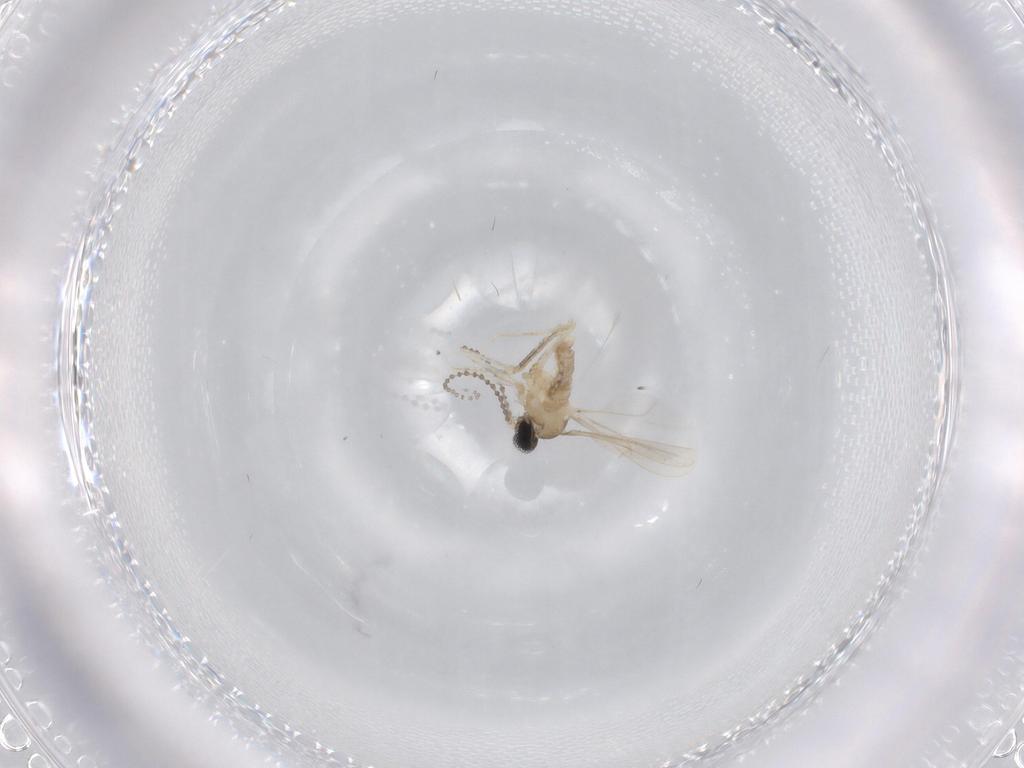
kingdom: Animalia
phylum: Arthropoda
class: Insecta
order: Diptera
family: Cecidomyiidae
